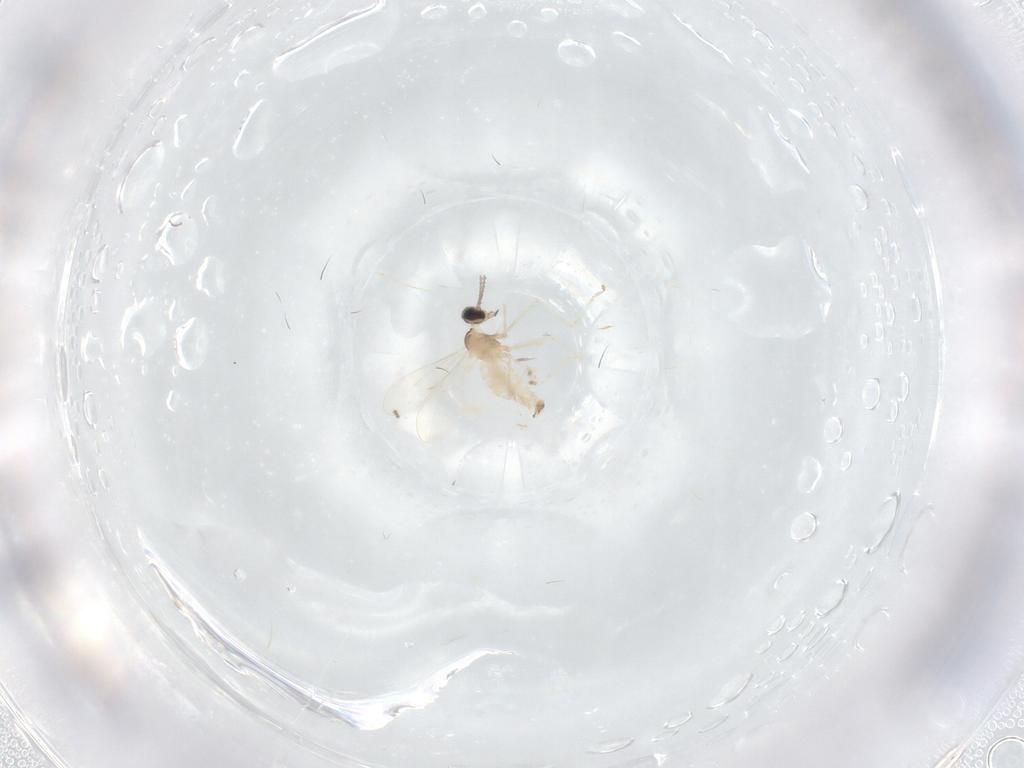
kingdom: Animalia
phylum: Arthropoda
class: Insecta
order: Diptera
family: Cecidomyiidae
